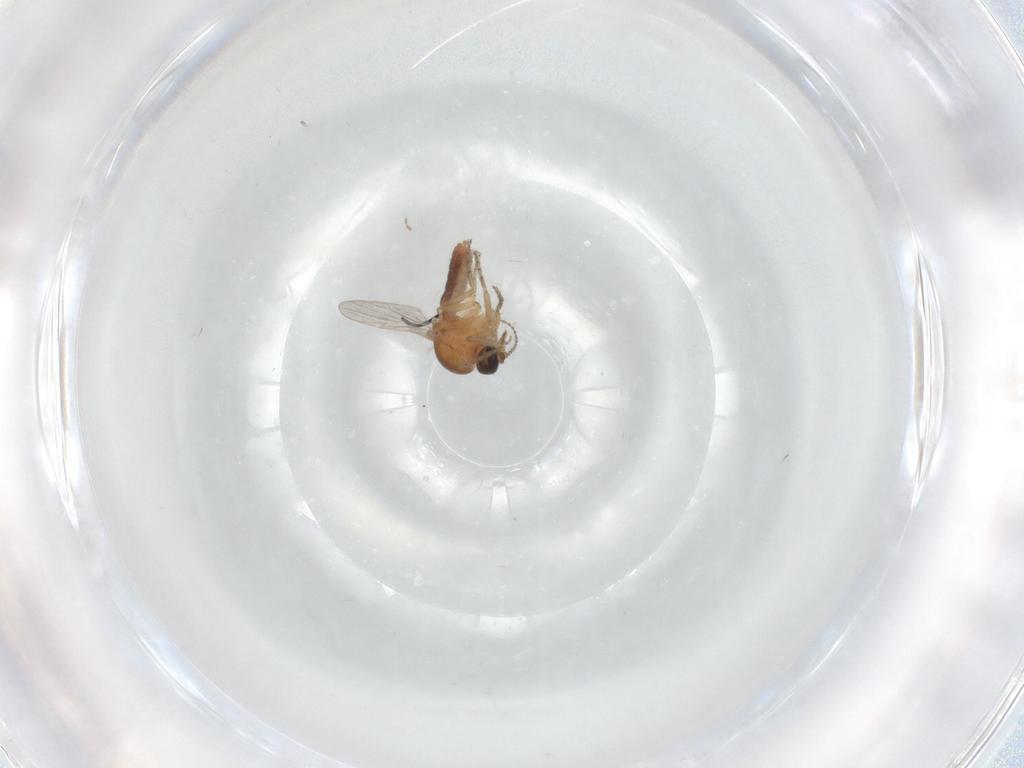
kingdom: Animalia
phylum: Arthropoda
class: Insecta
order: Diptera
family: Ceratopogonidae
